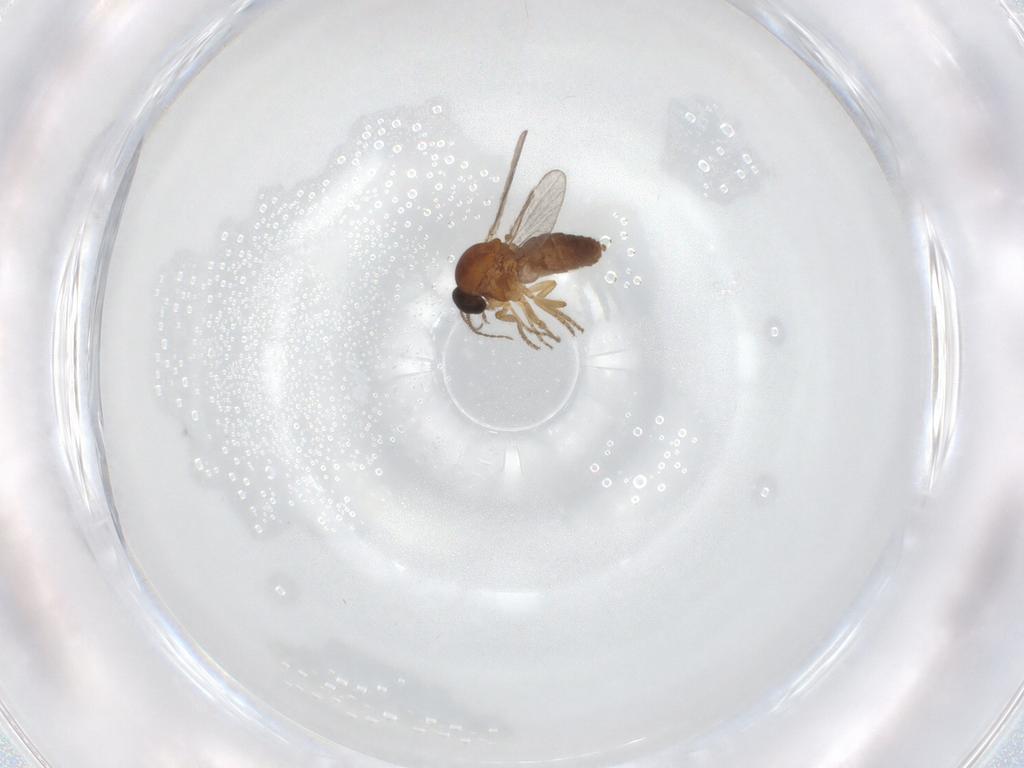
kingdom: Animalia
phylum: Arthropoda
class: Insecta
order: Diptera
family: Ceratopogonidae
